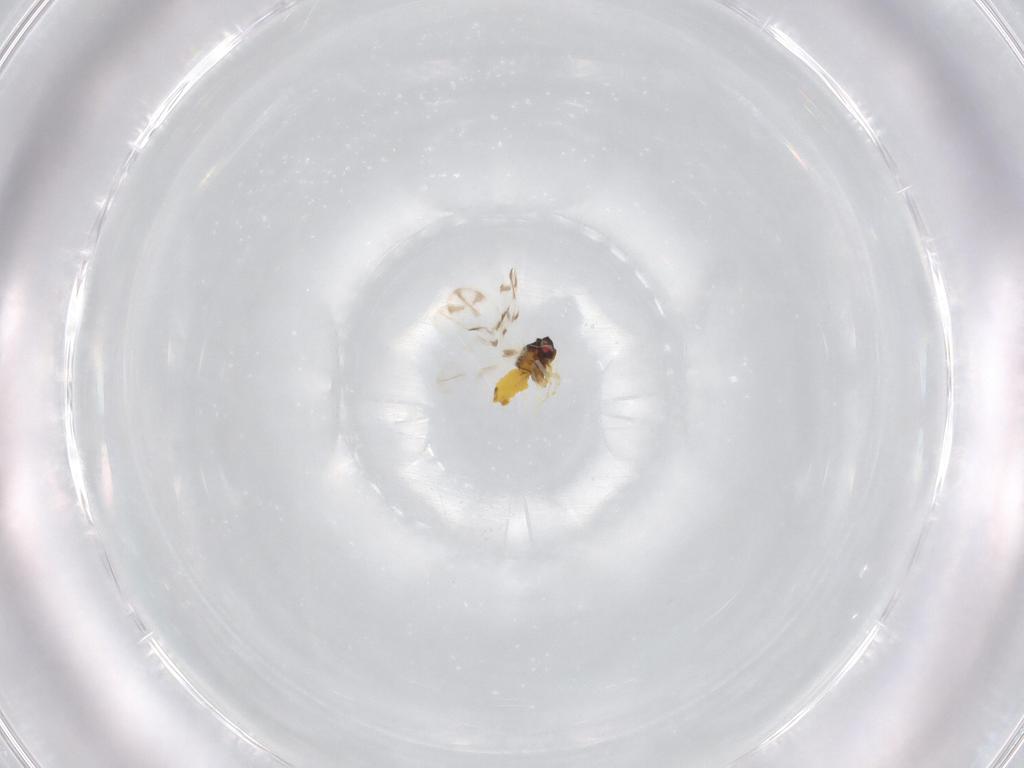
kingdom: Animalia
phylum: Arthropoda
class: Insecta
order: Hemiptera
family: Aleyrodidae
